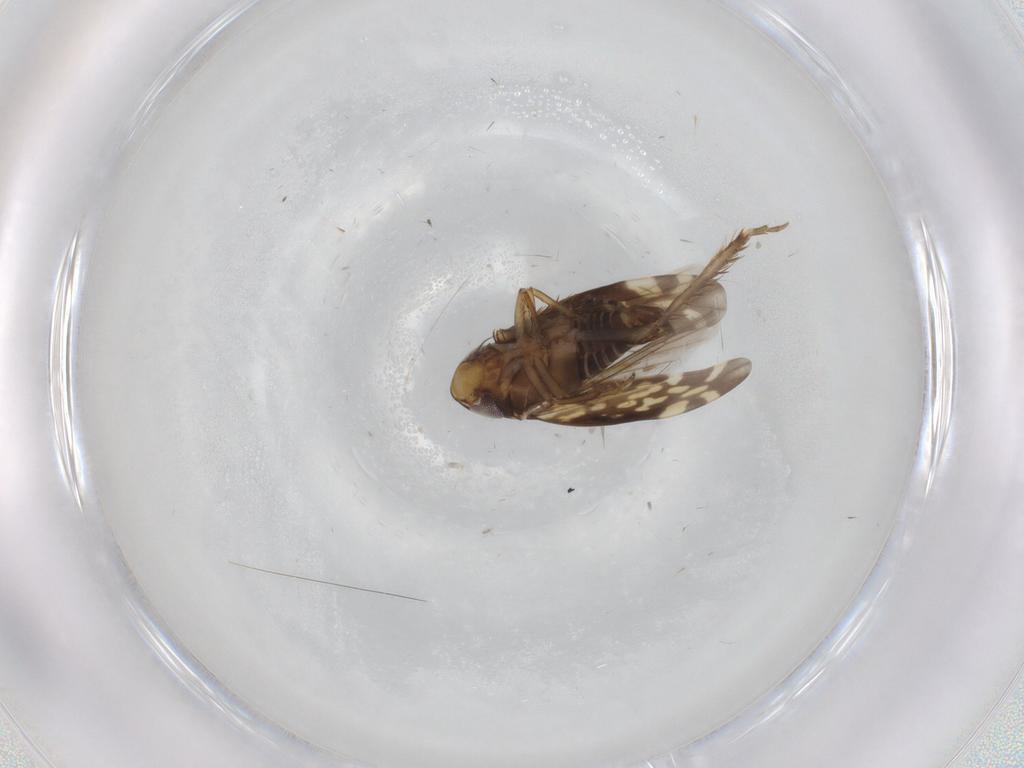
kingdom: Animalia
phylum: Arthropoda
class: Insecta
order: Hemiptera
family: Cicadellidae
